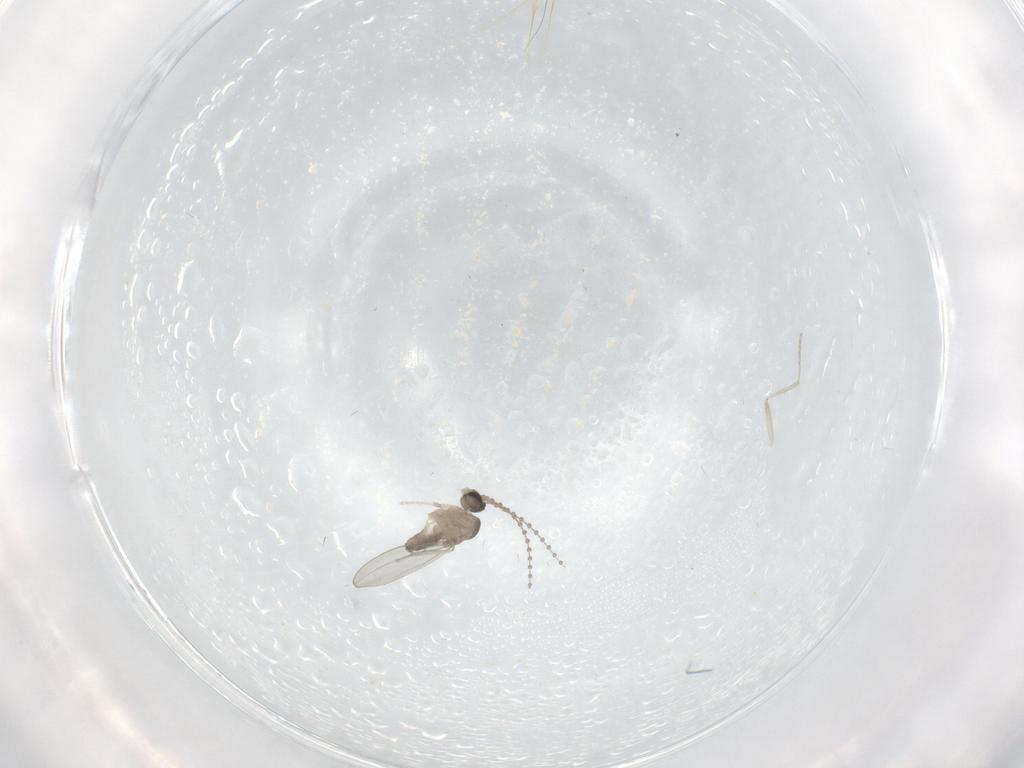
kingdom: Animalia
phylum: Arthropoda
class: Insecta
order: Diptera
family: Cecidomyiidae
